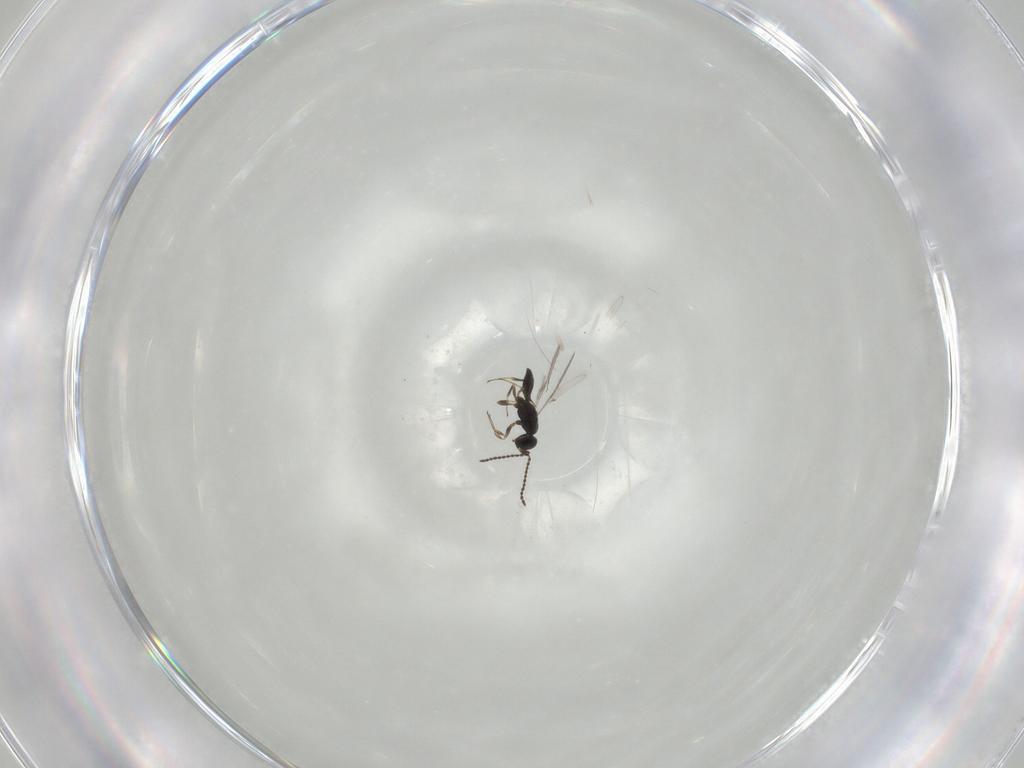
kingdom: Animalia
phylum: Arthropoda
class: Insecta
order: Hymenoptera
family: Scelionidae
